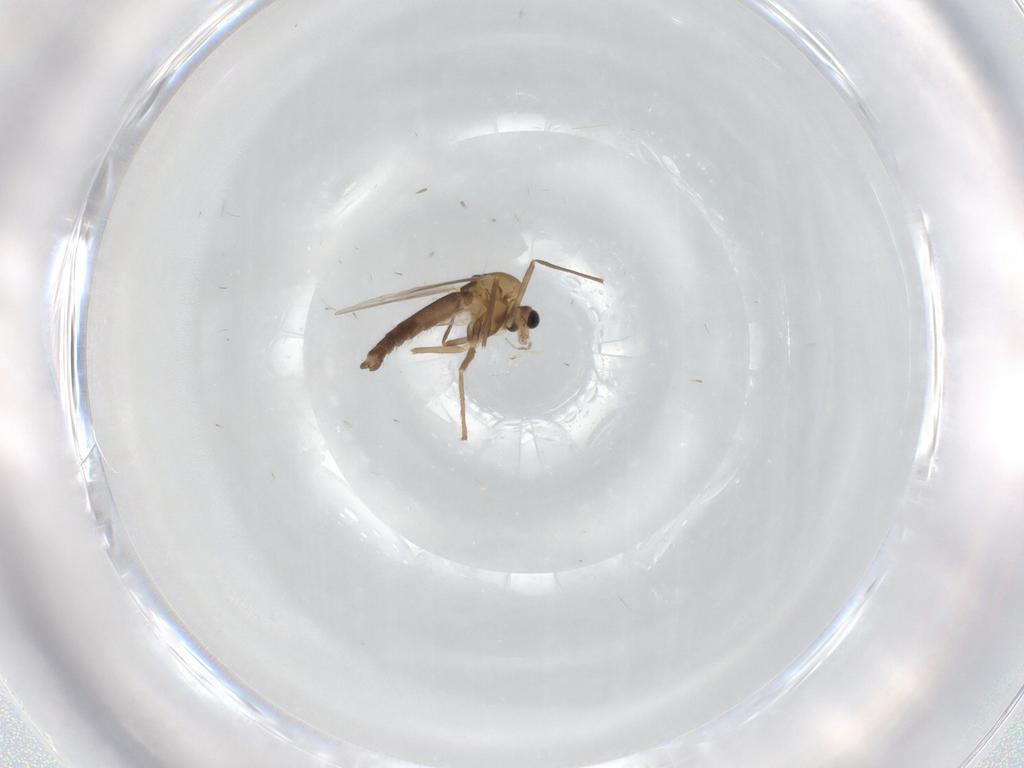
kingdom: Animalia
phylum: Arthropoda
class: Insecta
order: Diptera
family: Chironomidae
